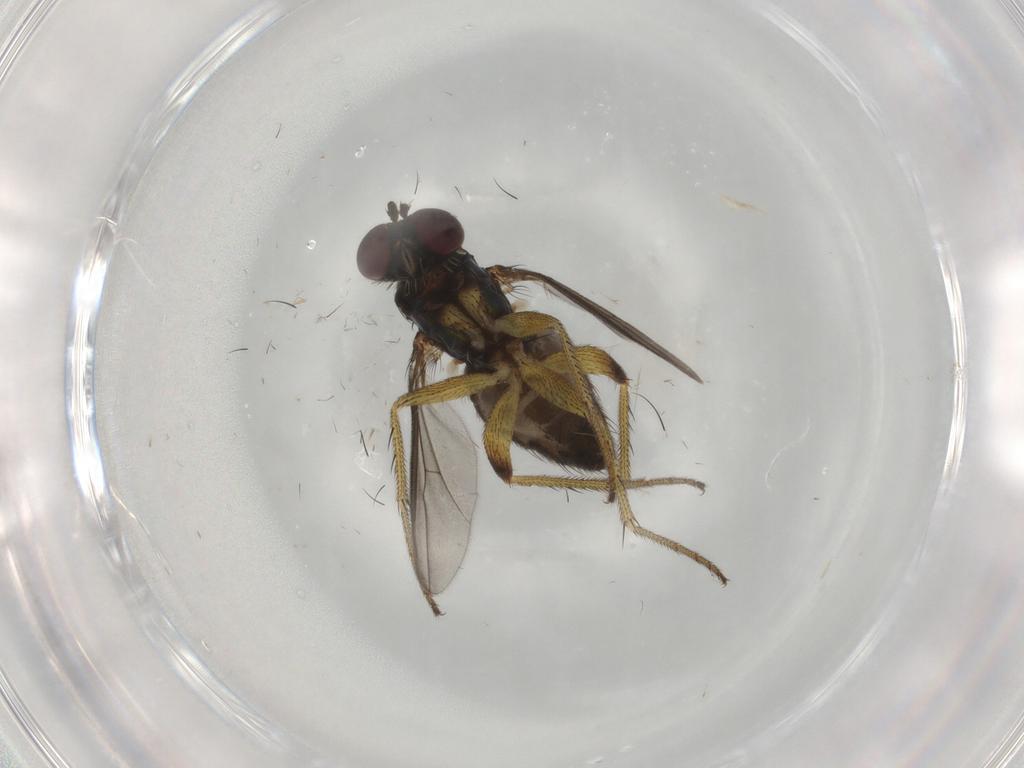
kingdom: Animalia
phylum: Arthropoda
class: Insecta
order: Diptera
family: Dolichopodidae
